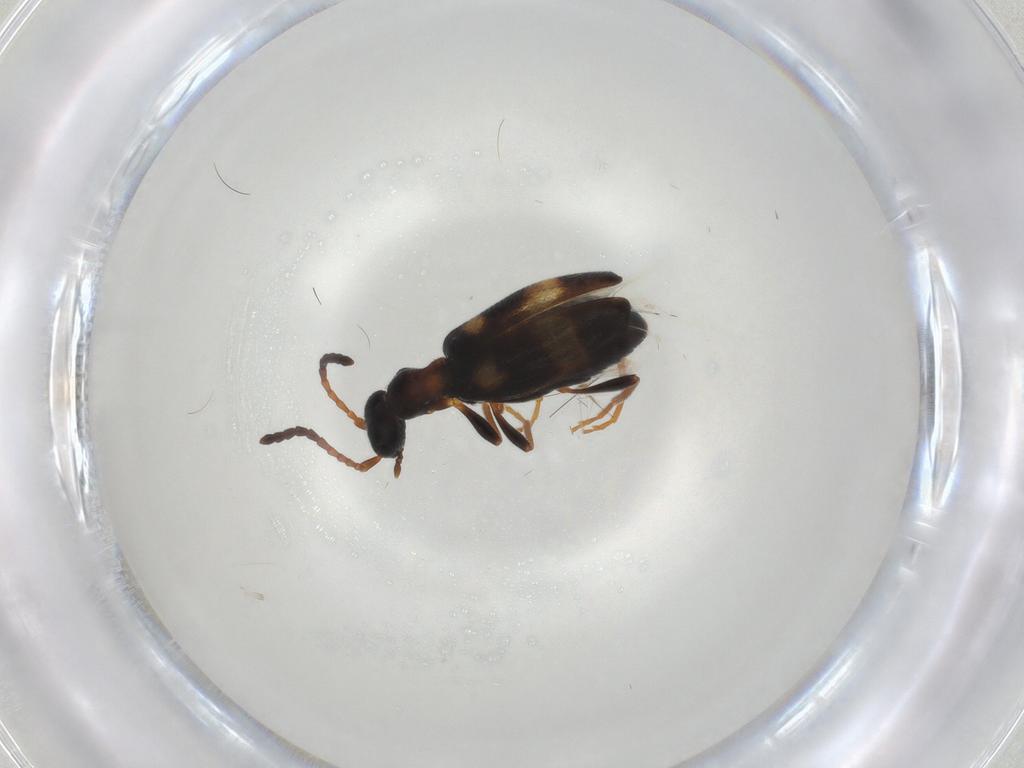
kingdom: Animalia
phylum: Arthropoda
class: Insecta
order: Coleoptera
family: Anthicidae
